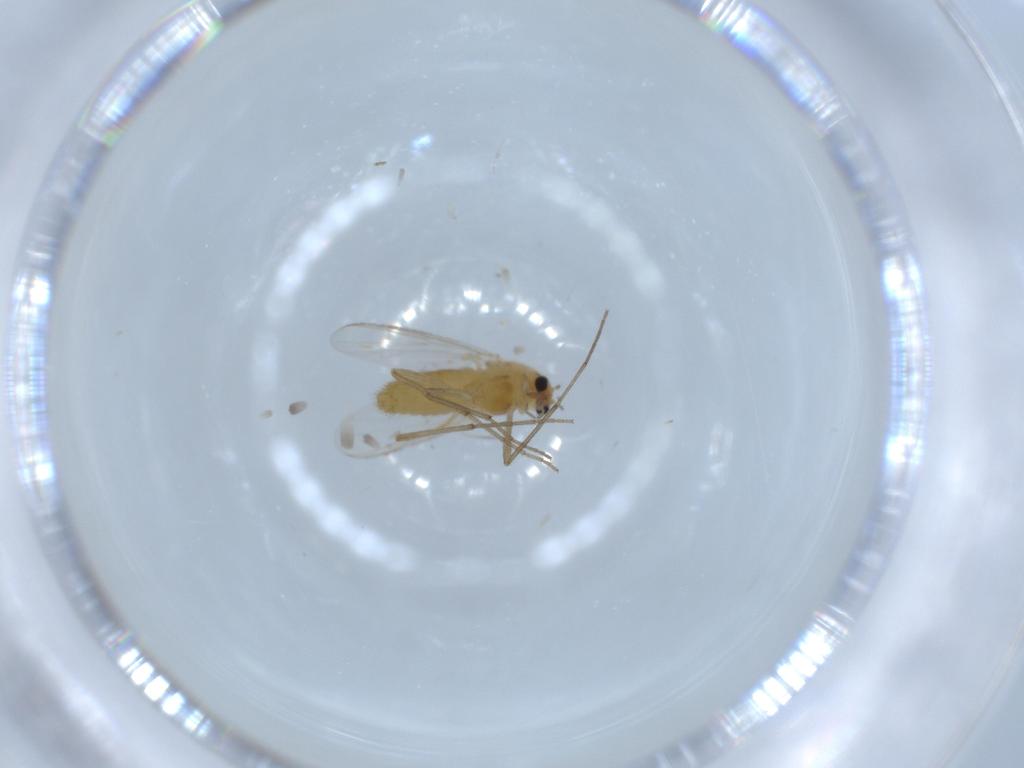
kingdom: Animalia
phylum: Arthropoda
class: Insecta
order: Diptera
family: Chironomidae
